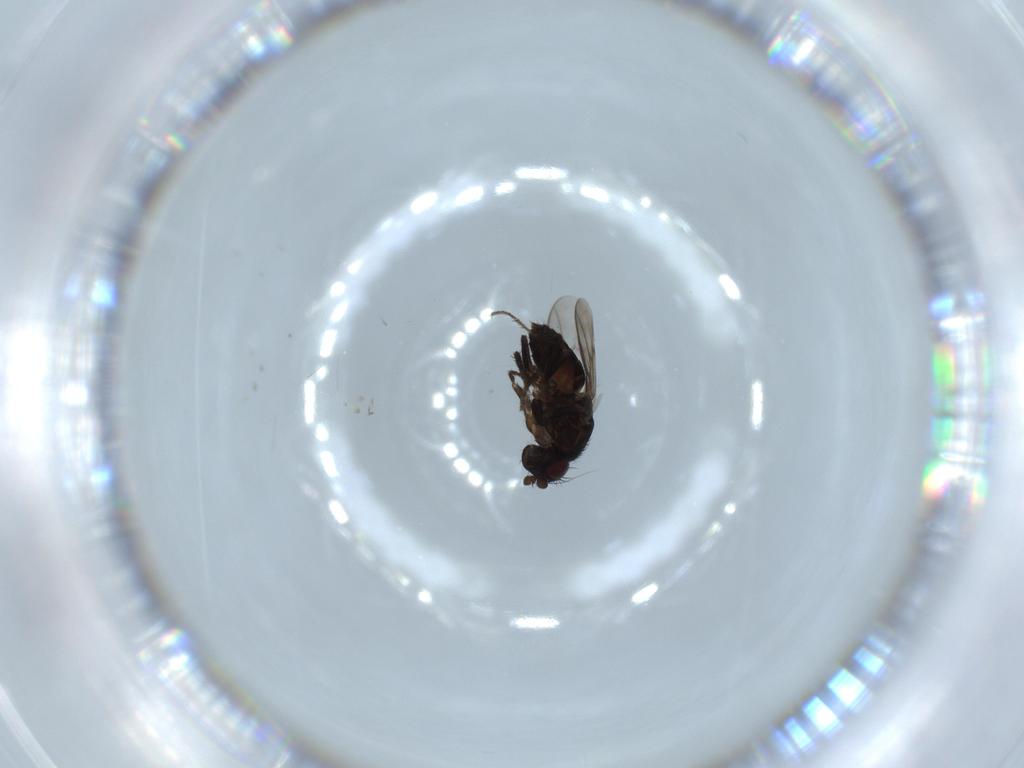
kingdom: Animalia
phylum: Arthropoda
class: Insecta
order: Diptera
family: Sphaeroceridae
